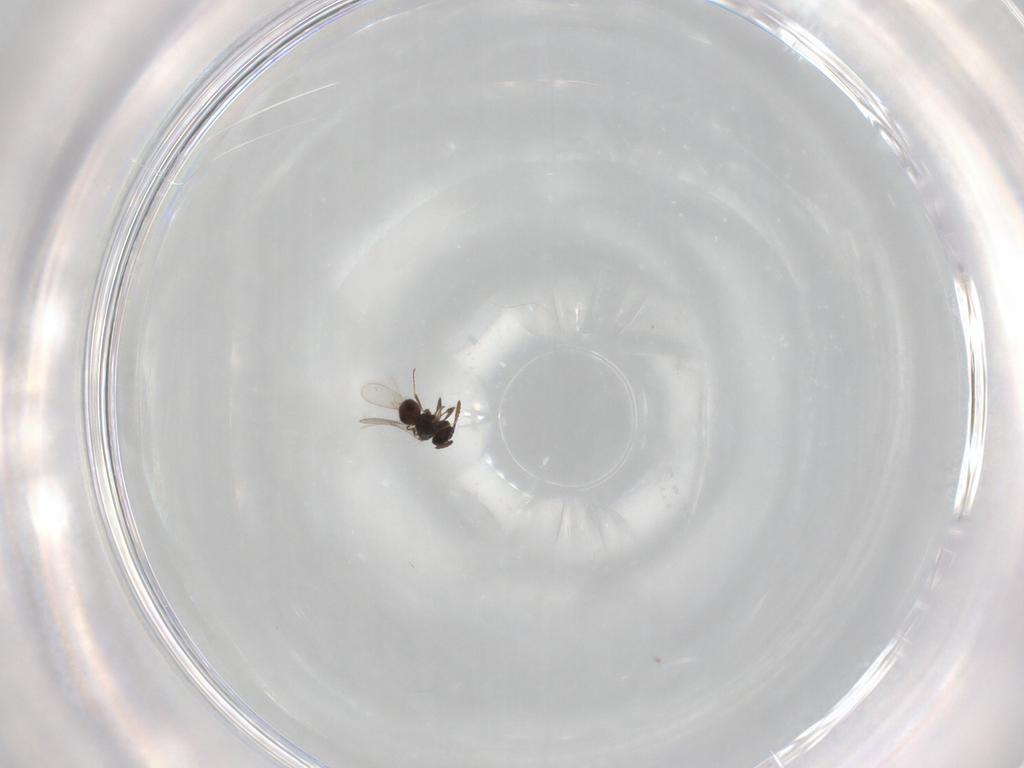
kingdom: Animalia
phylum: Arthropoda
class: Insecta
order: Hymenoptera
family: Scelionidae
